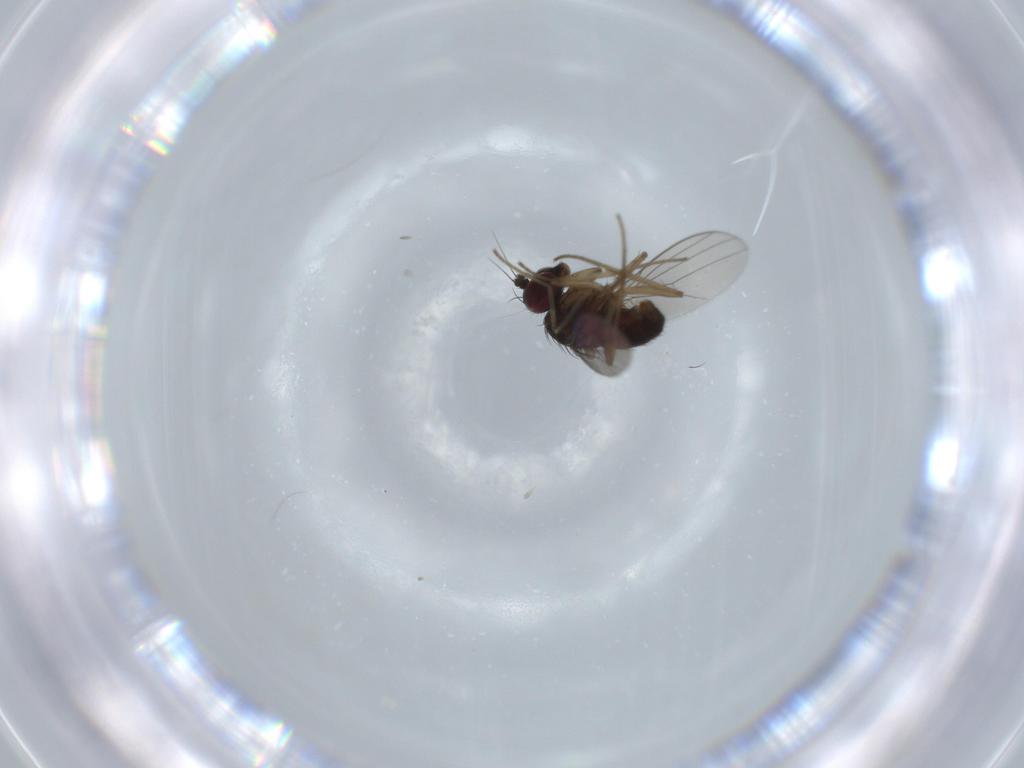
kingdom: Animalia
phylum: Arthropoda
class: Insecta
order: Diptera
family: Dolichopodidae
